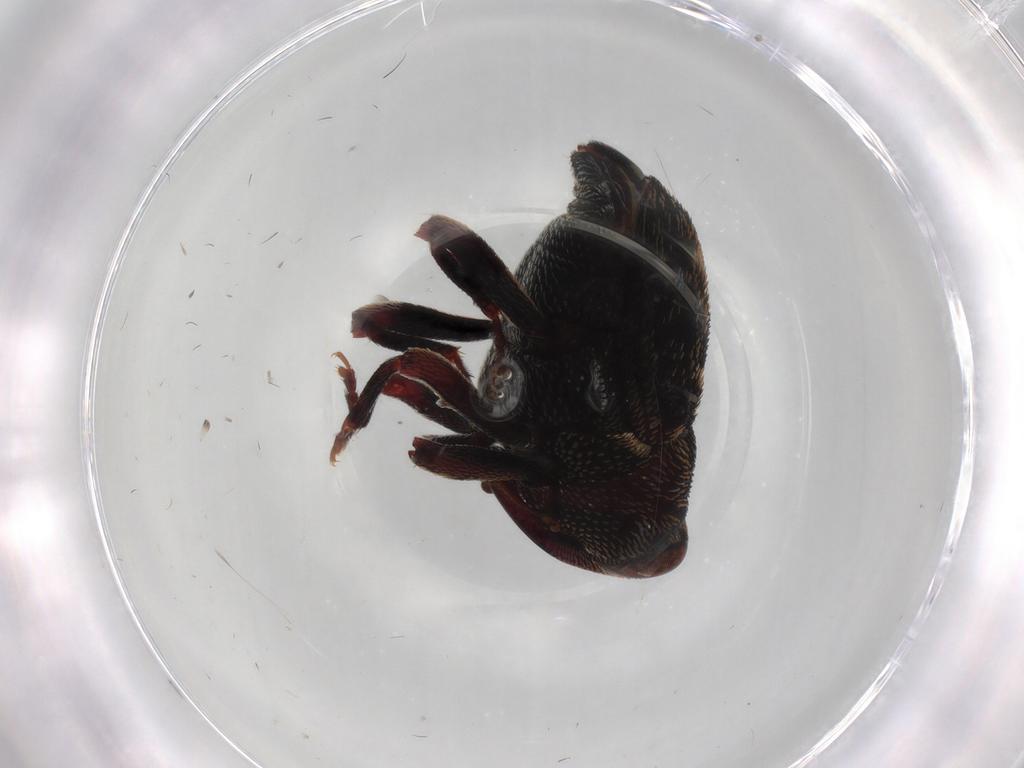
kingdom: Animalia
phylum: Arthropoda
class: Insecta
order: Coleoptera
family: Curculionidae
